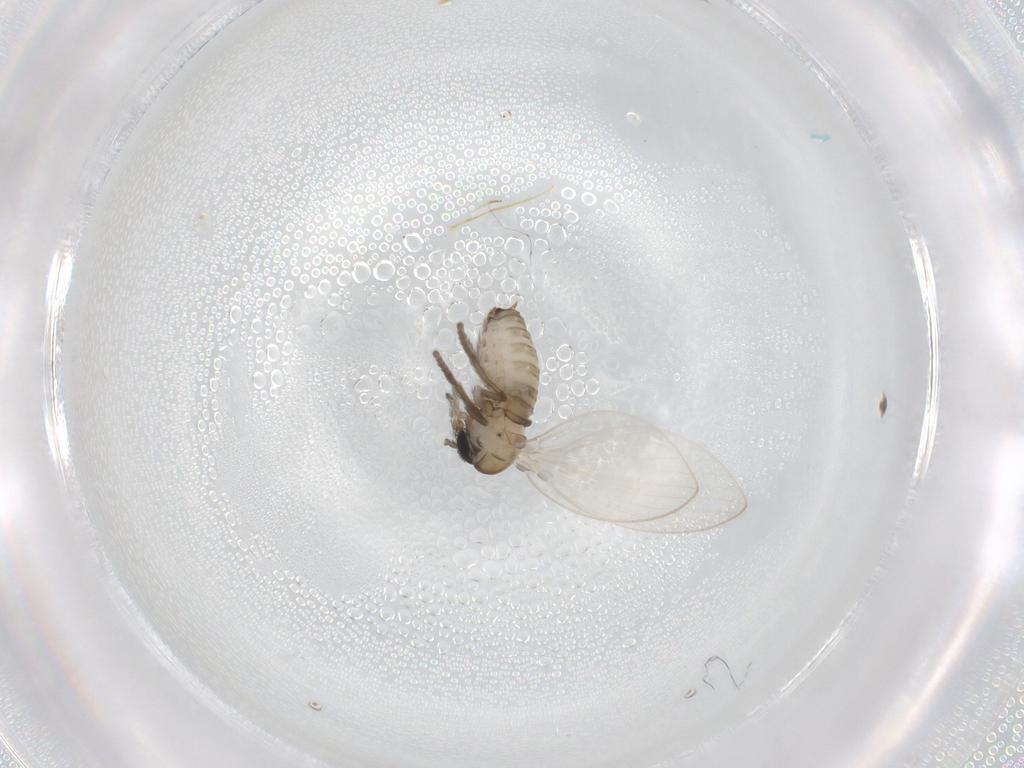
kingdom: Animalia
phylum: Arthropoda
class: Insecta
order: Diptera
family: Psychodidae
